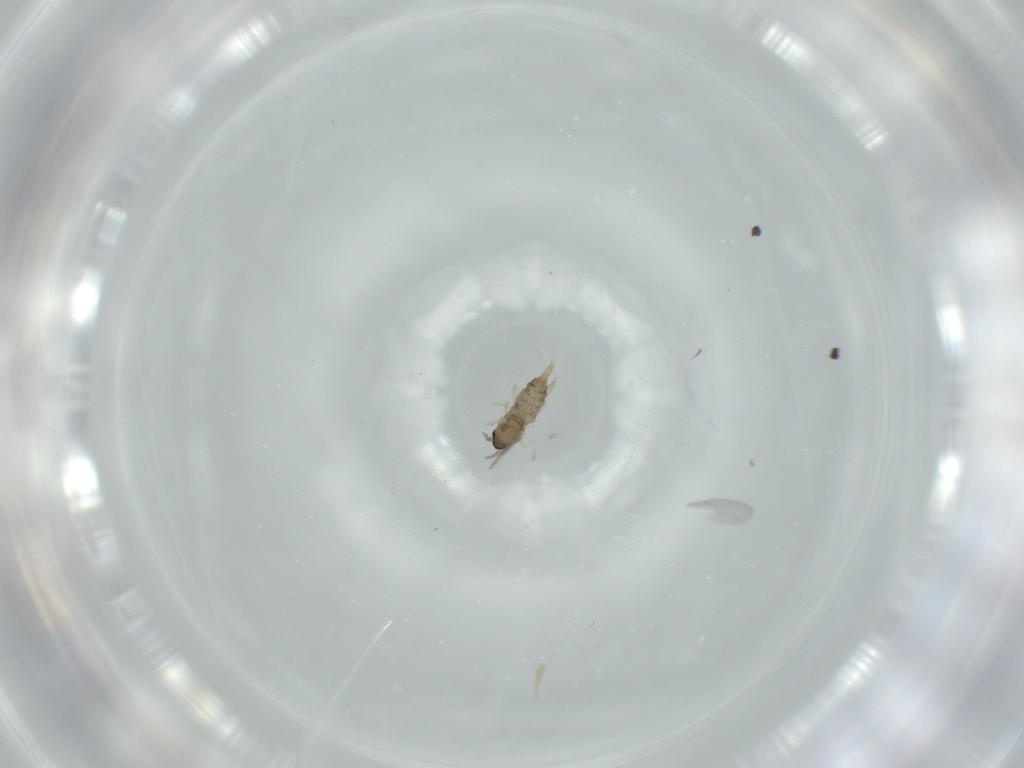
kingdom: Animalia
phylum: Arthropoda
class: Insecta
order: Diptera
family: Cecidomyiidae
